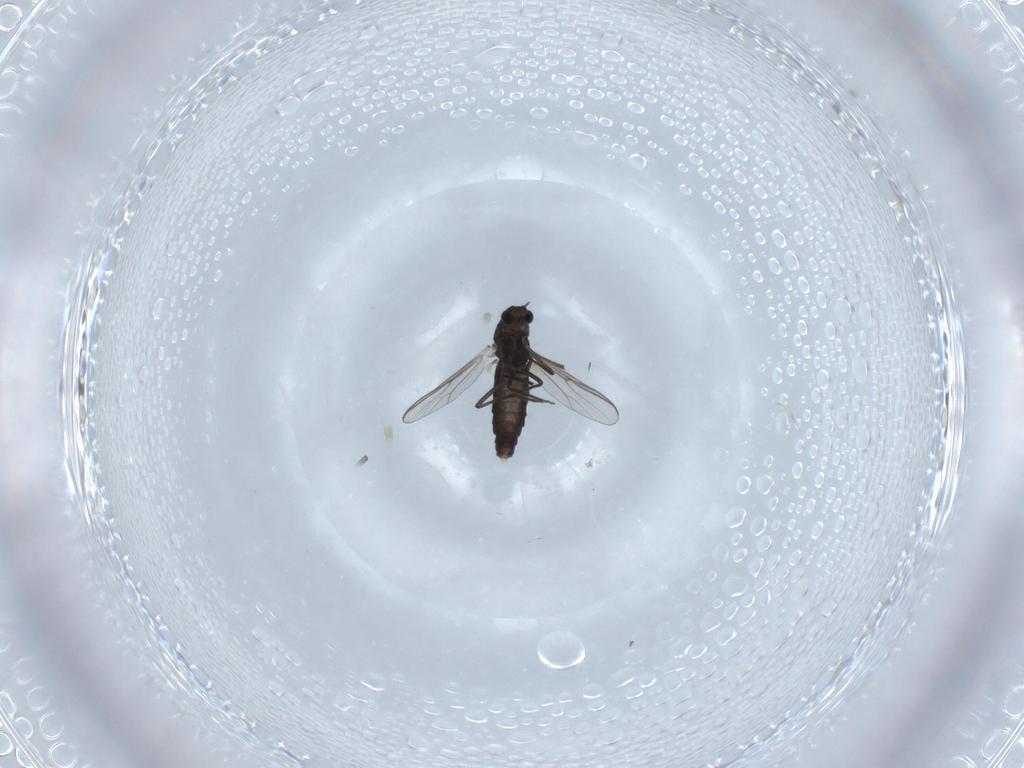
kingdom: Animalia
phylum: Arthropoda
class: Insecta
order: Diptera
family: Chironomidae
